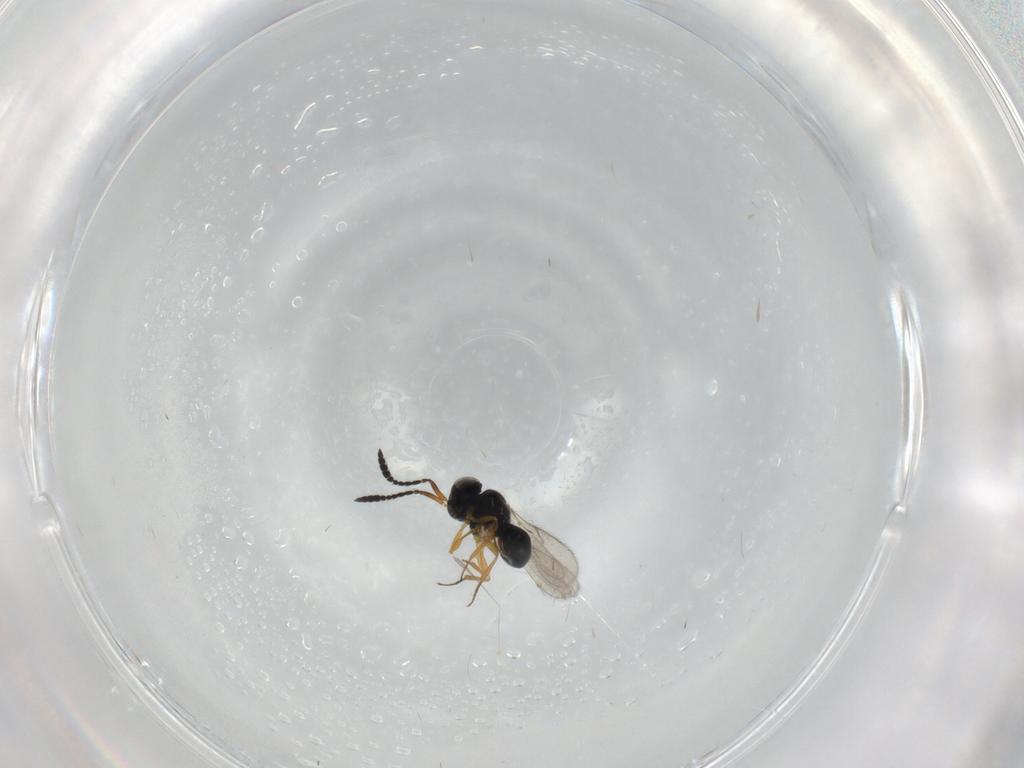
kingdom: Animalia
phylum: Arthropoda
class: Insecta
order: Hymenoptera
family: Scelionidae
